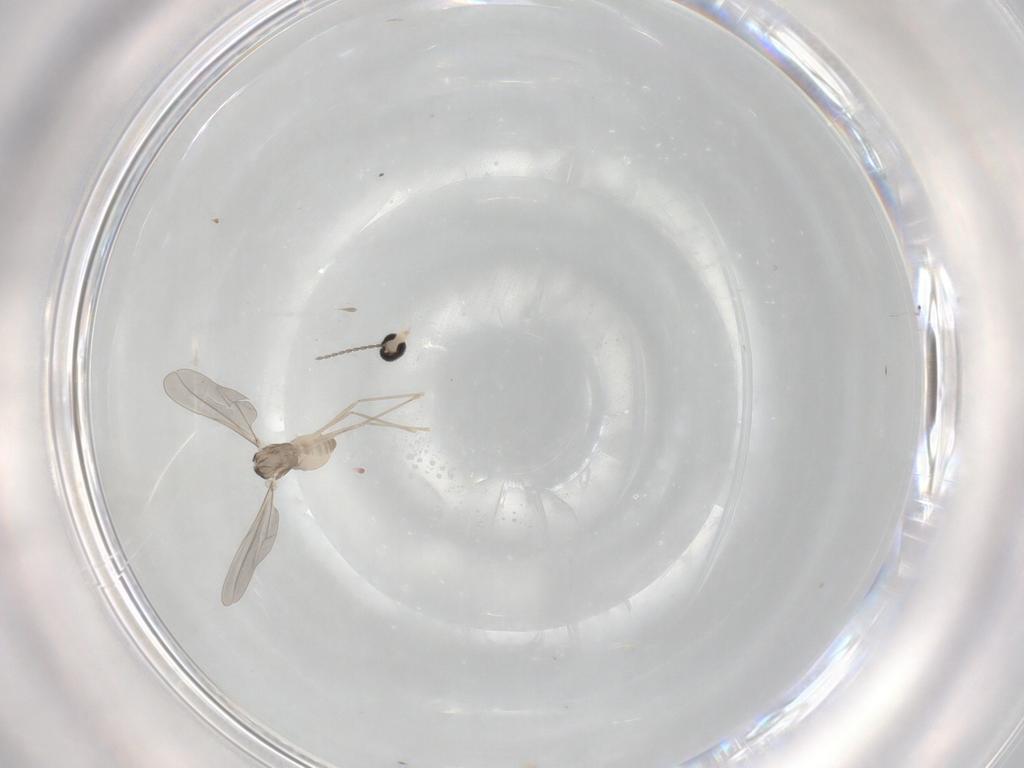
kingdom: Animalia
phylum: Arthropoda
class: Insecta
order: Diptera
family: Cecidomyiidae
